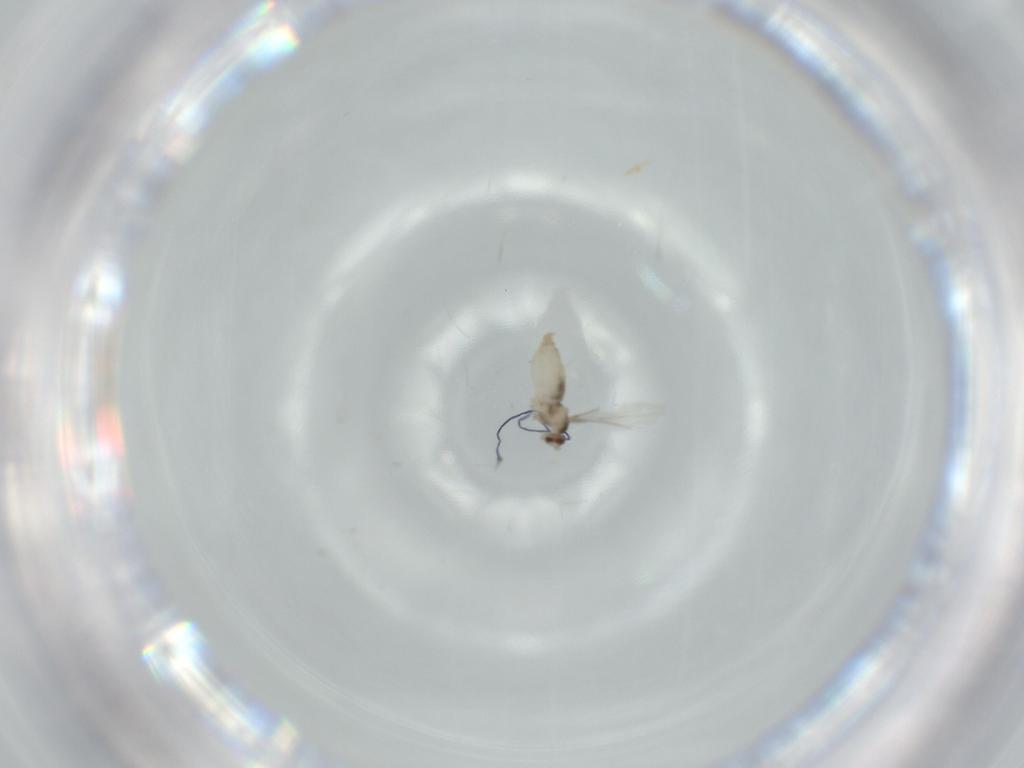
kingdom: Animalia
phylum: Arthropoda
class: Insecta
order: Diptera
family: Cecidomyiidae
